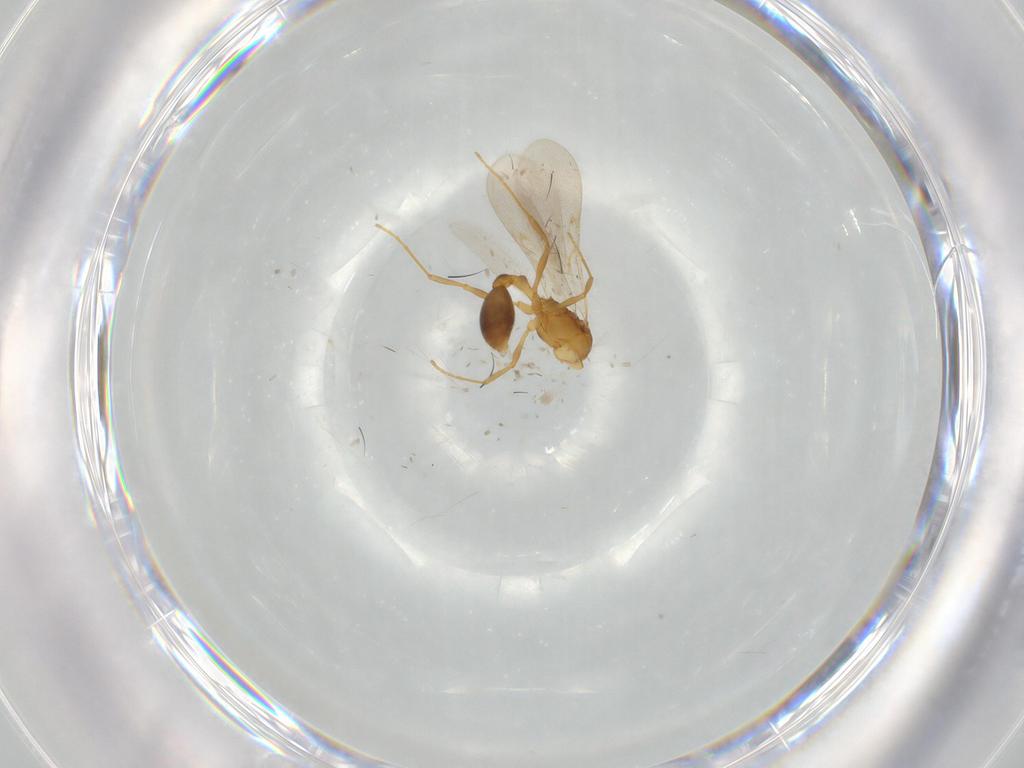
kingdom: Animalia
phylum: Arthropoda
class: Insecta
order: Hymenoptera
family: Formicidae
